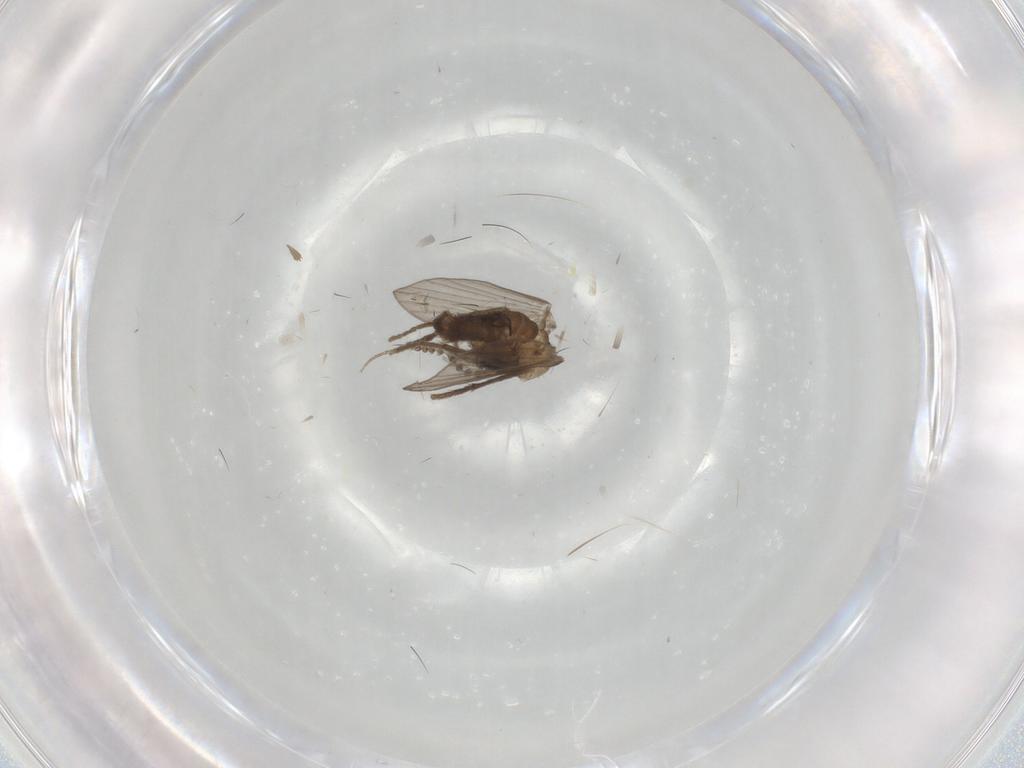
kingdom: Animalia
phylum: Arthropoda
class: Insecta
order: Diptera
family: Psychodidae
